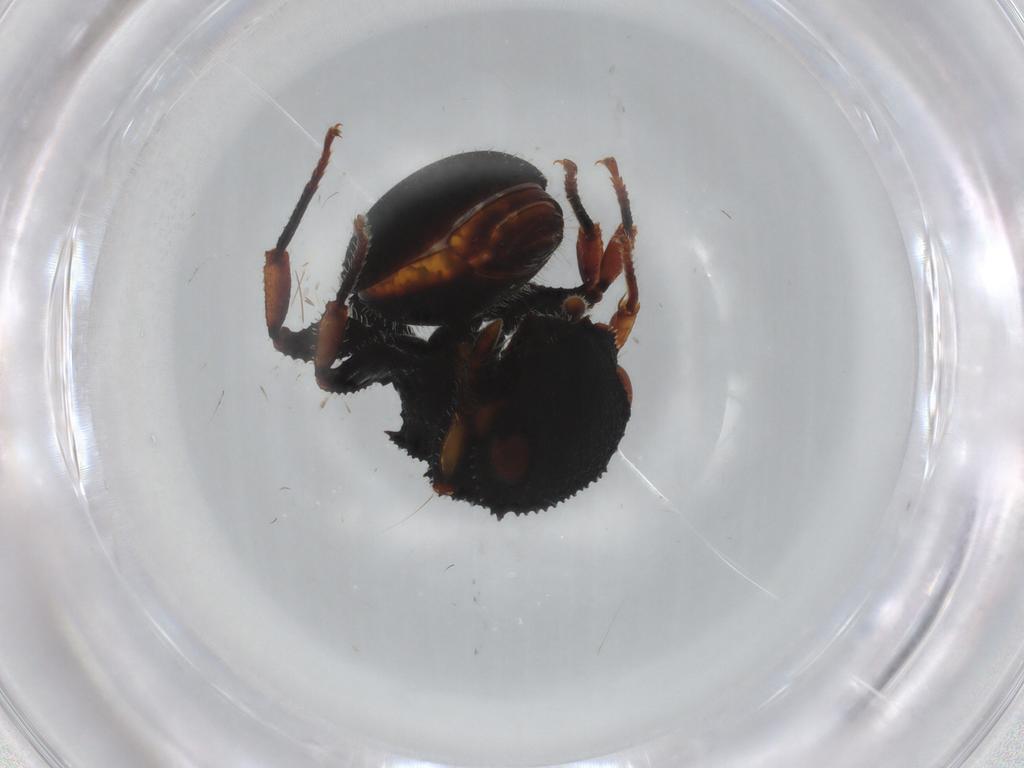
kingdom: Animalia
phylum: Arthropoda
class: Insecta
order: Hymenoptera
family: Formicidae
